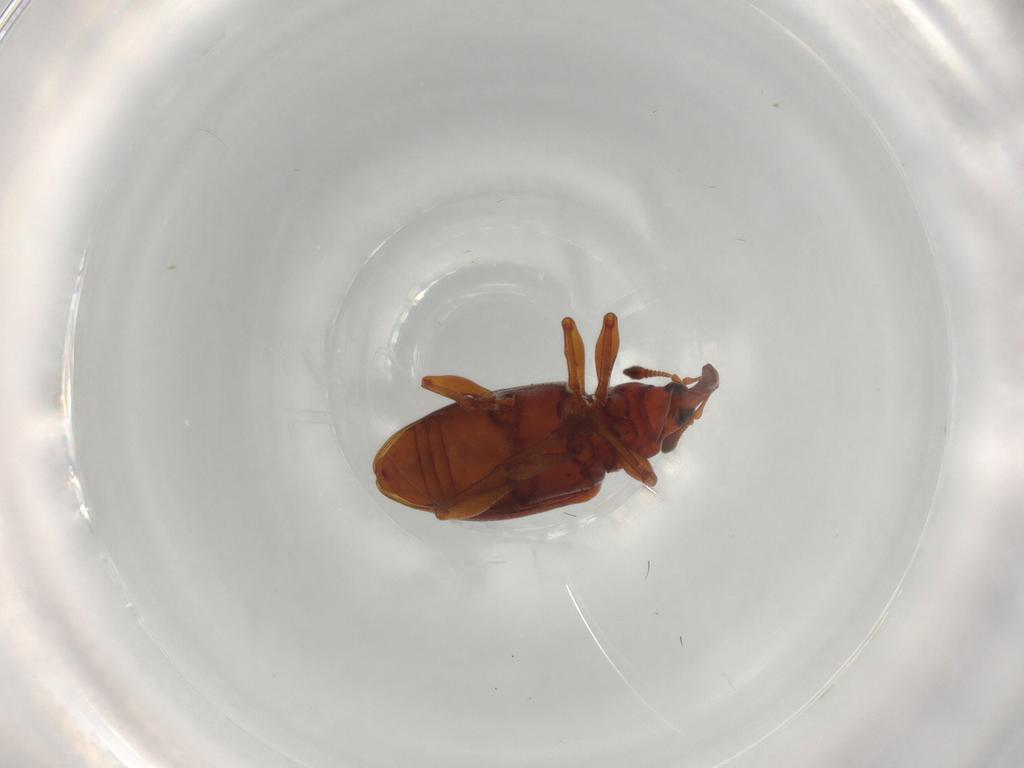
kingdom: Animalia
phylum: Arthropoda
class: Insecta
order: Coleoptera
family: Curculionidae
